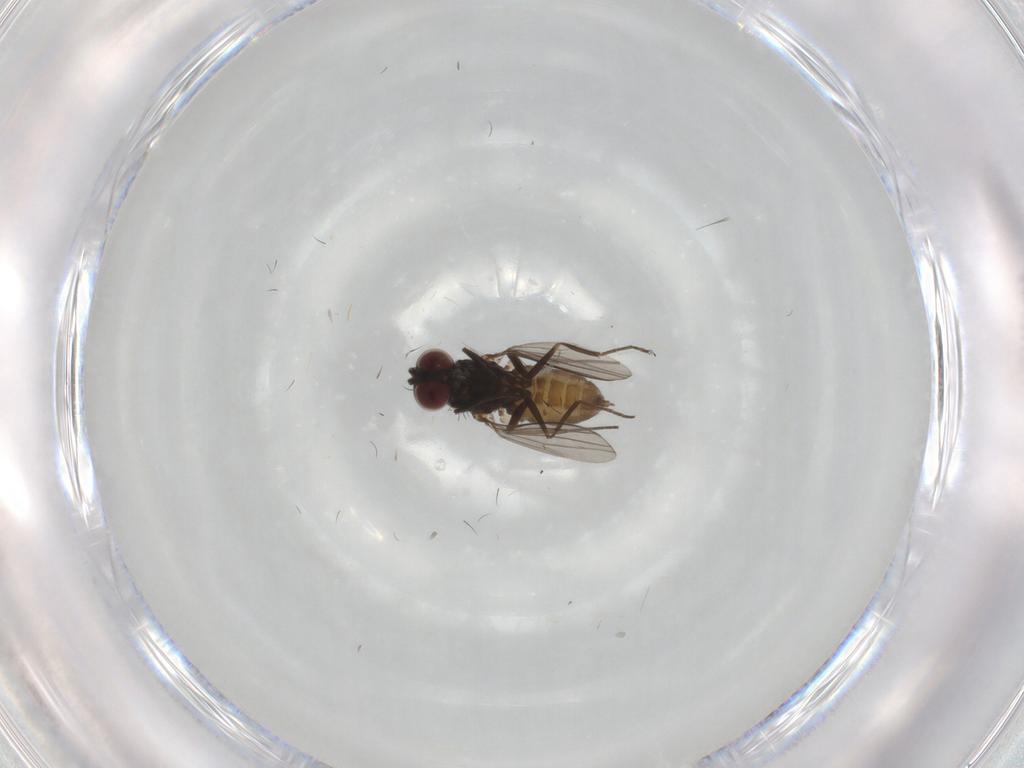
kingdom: Animalia
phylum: Arthropoda
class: Insecta
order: Diptera
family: Dolichopodidae
